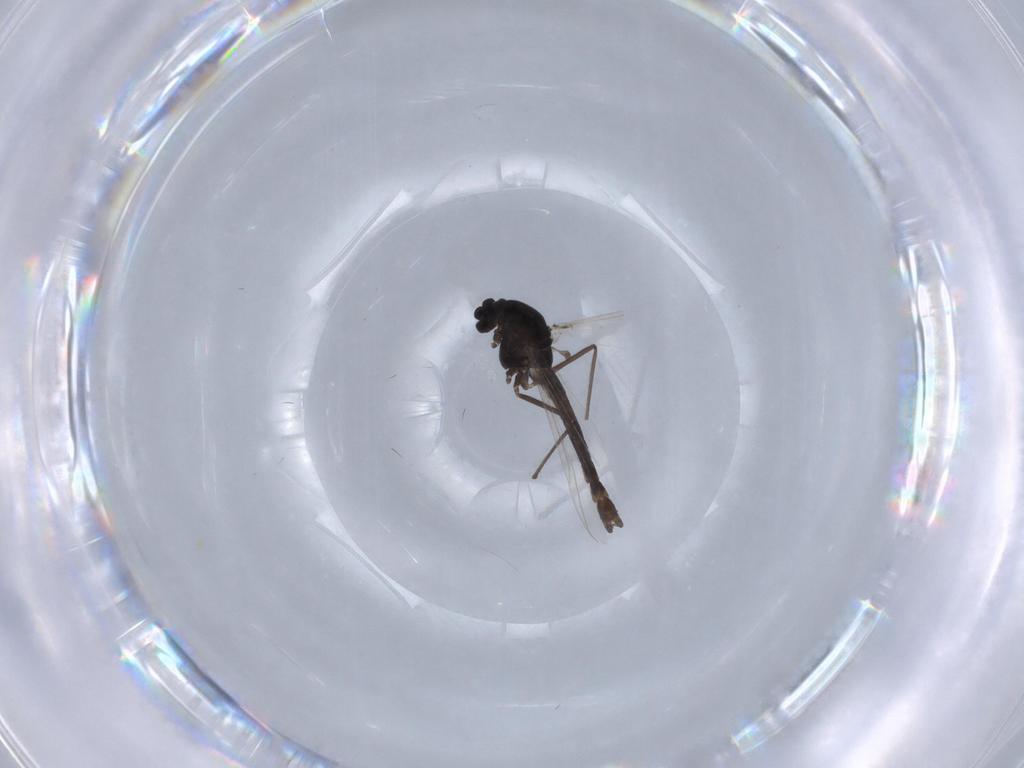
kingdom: Animalia
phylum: Arthropoda
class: Insecta
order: Diptera
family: Chironomidae
